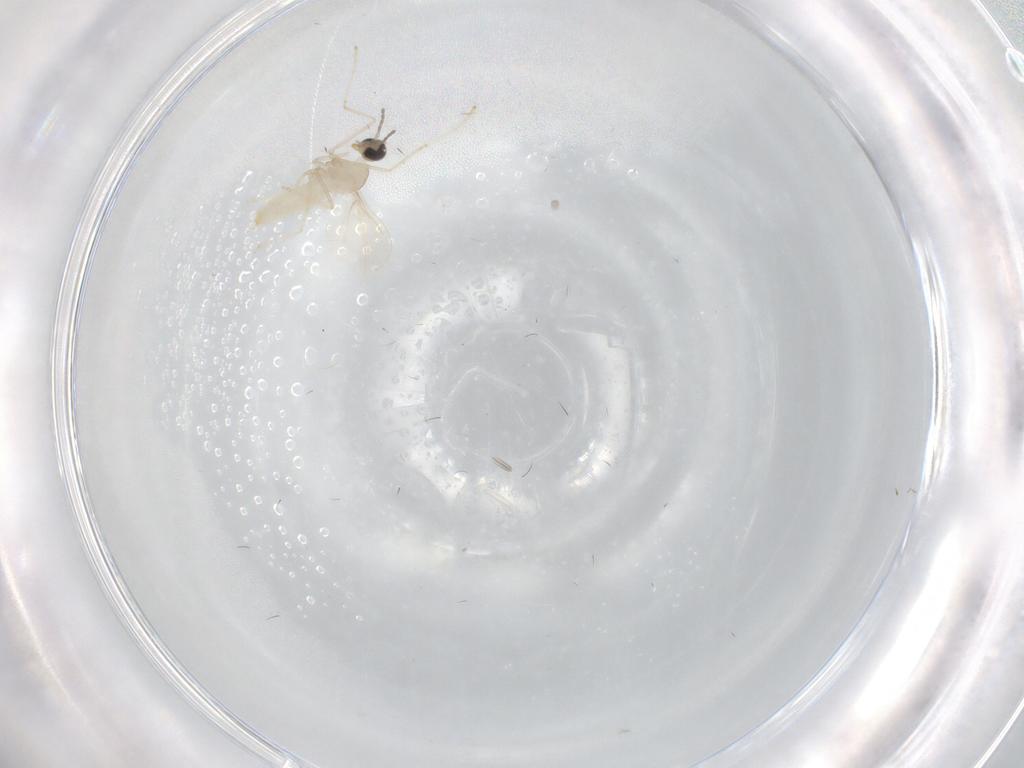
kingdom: Animalia
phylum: Arthropoda
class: Insecta
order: Diptera
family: Cecidomyiidae
